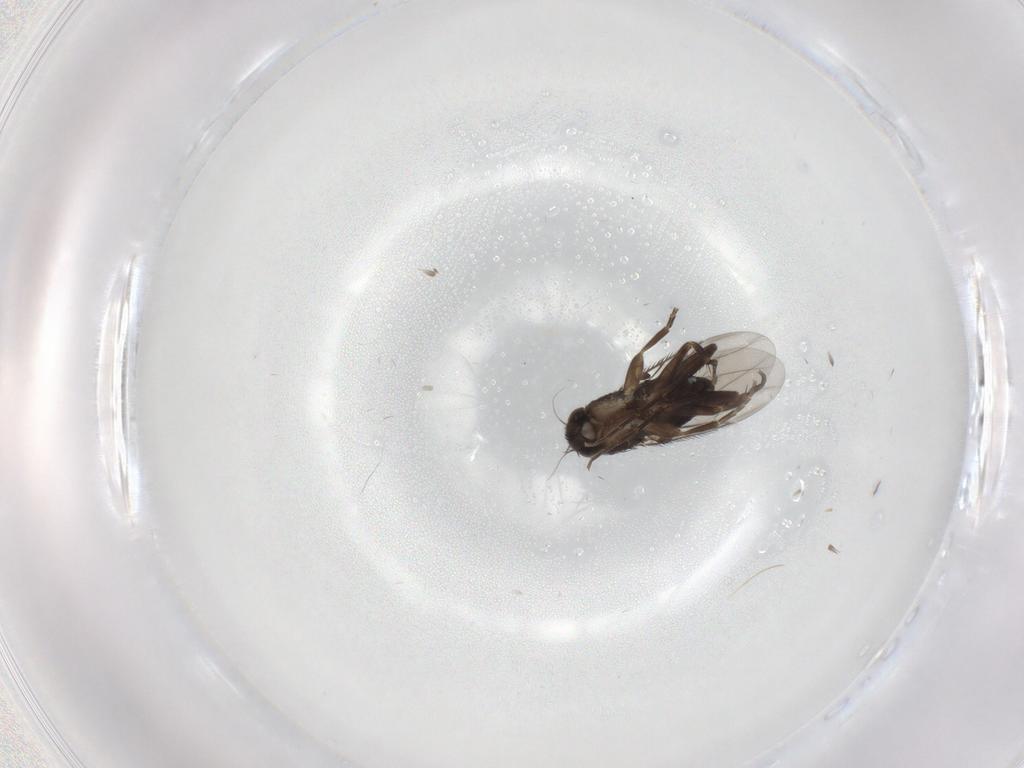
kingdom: Animalia
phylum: Arthropoda
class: Insecta
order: Diptera
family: Phoridae
